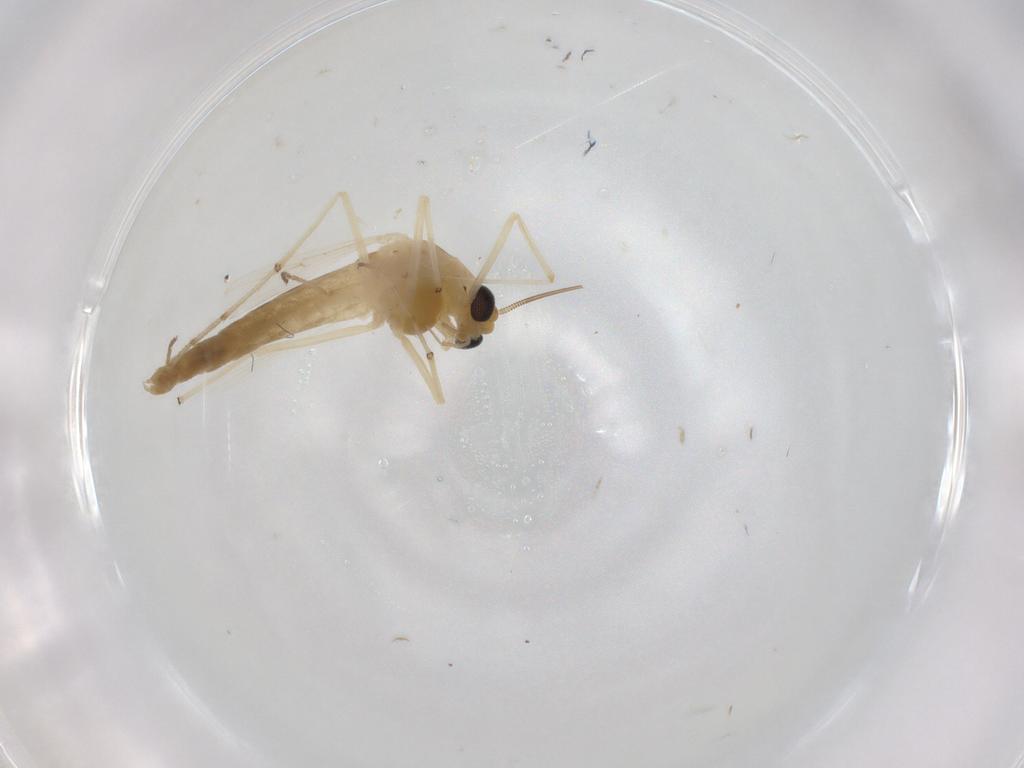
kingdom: Animalia
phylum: Arthropoda
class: Insecta
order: Diptera
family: Chironomidae
